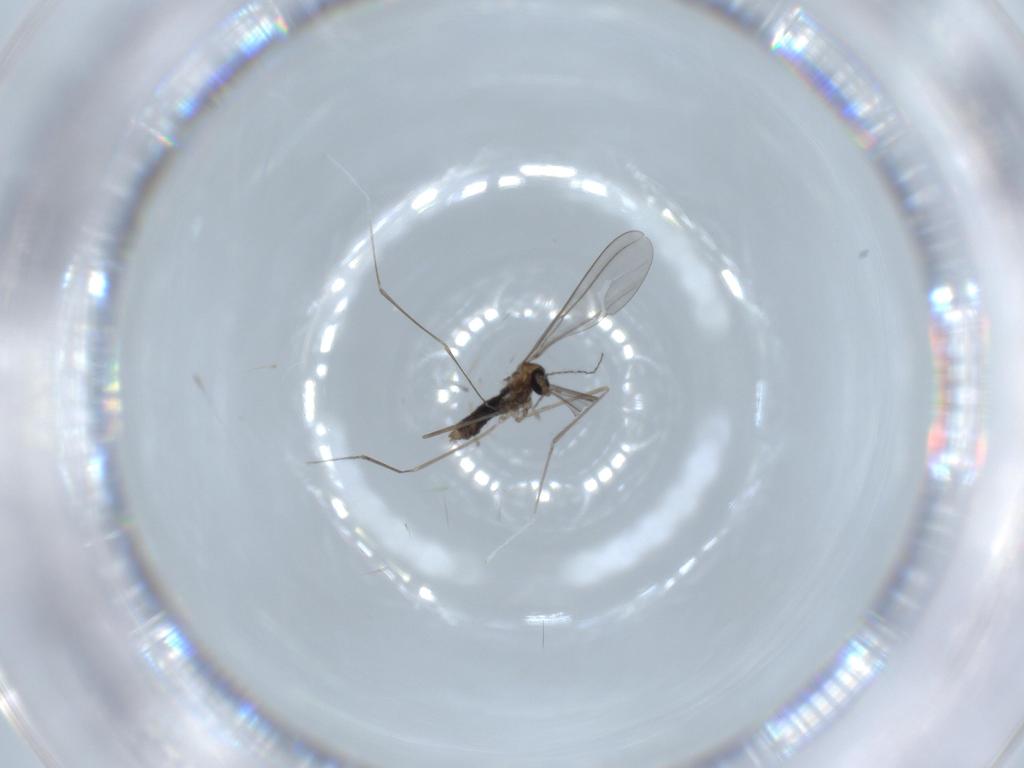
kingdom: Animalia
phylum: Arthropoda
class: Insecta
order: Diptera
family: Cecidomyiidae
